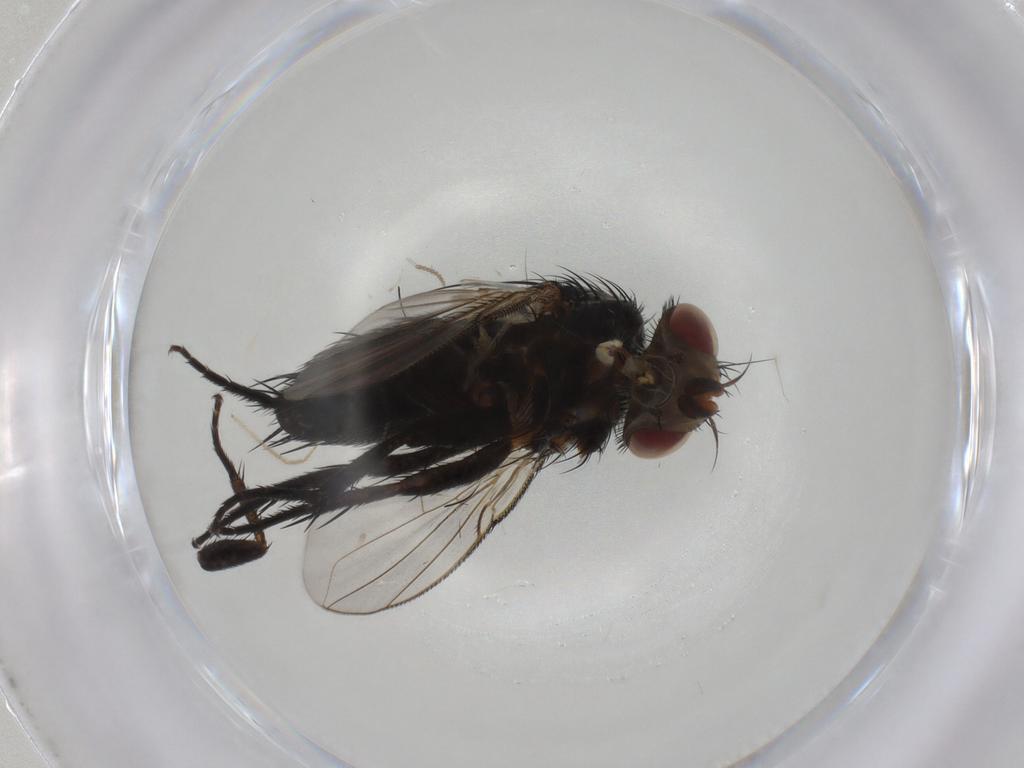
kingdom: Animalia
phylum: Arthropoda
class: Insecta
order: Diptera
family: Tachinidae
